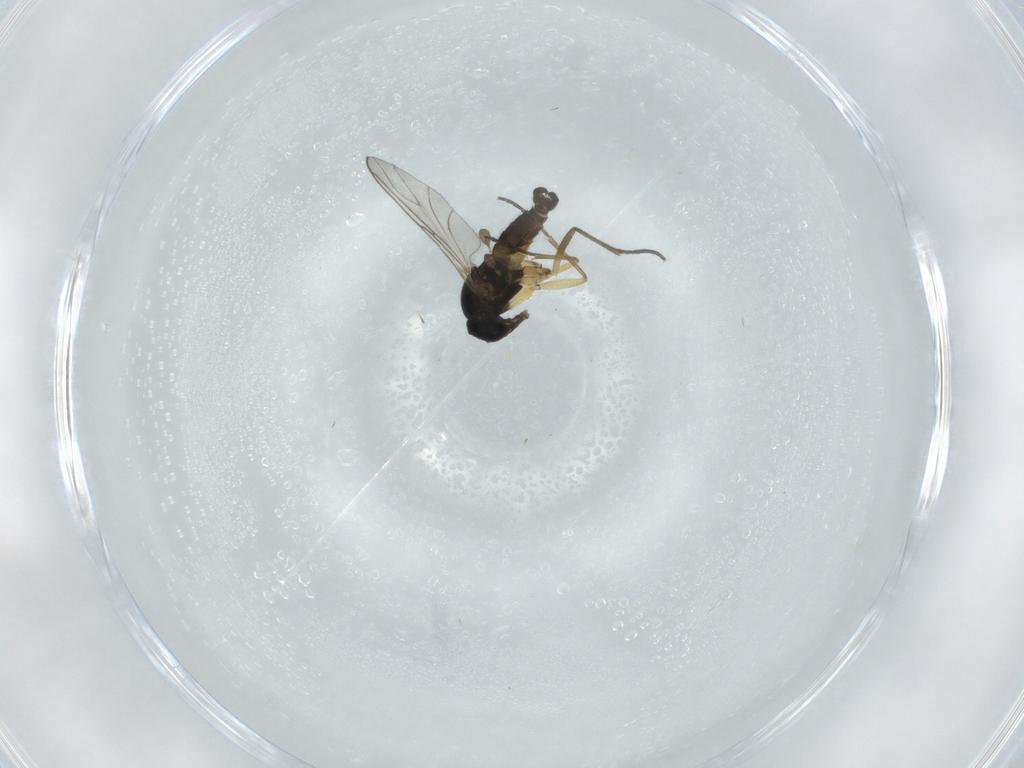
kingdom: Animalia
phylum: Arthropoda
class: Insecta
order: Diptera
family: Sciaridae
